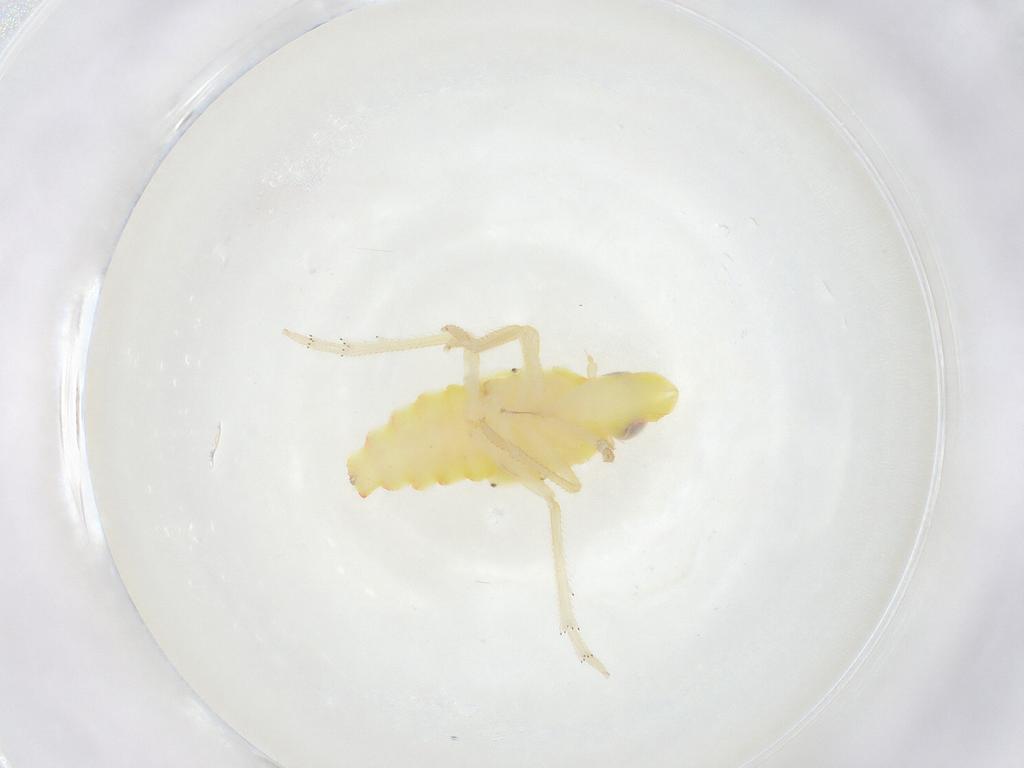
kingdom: Animalia
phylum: Arthropoda
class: Insecta
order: Hemiptera
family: Tropiduchidae
